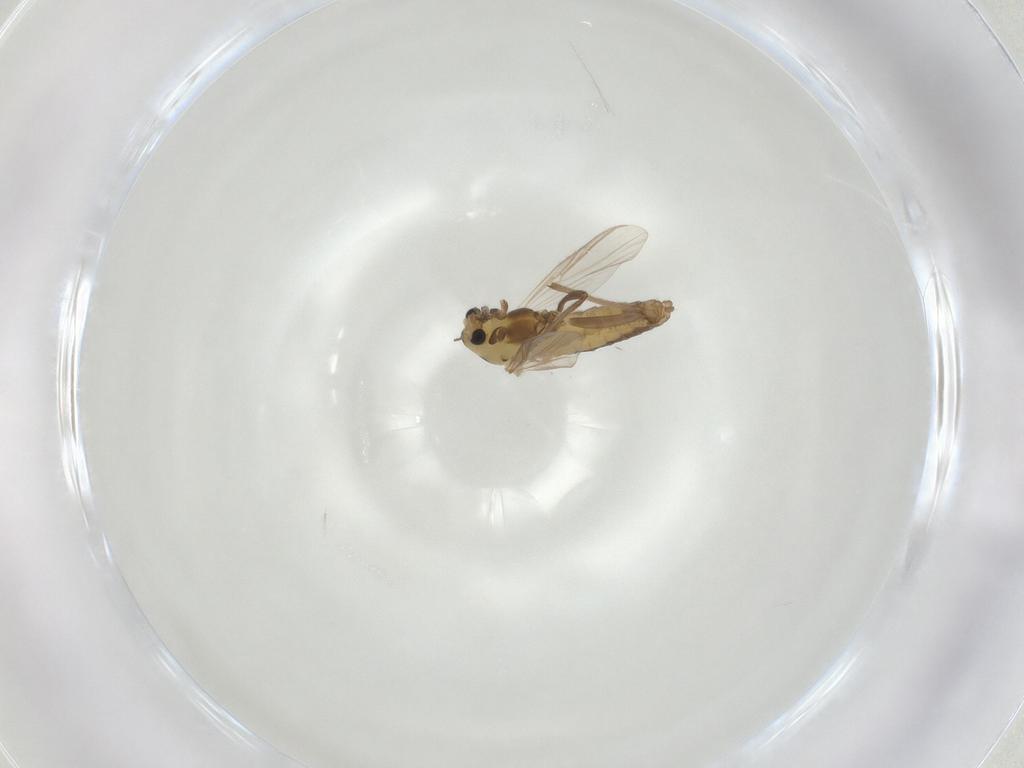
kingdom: Animalia
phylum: Arthropoda
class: Insecta
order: Diptera
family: Chironomidae
